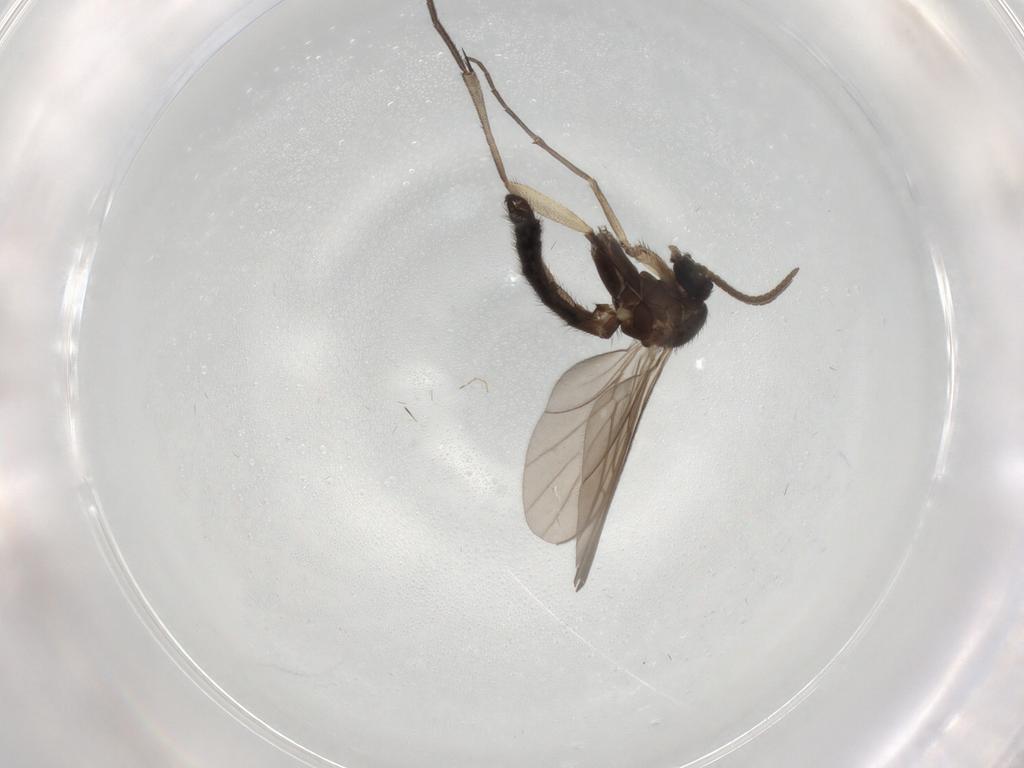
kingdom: Animalia
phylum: Arthropoda
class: Insecta
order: Diptera
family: Keroplatidae
